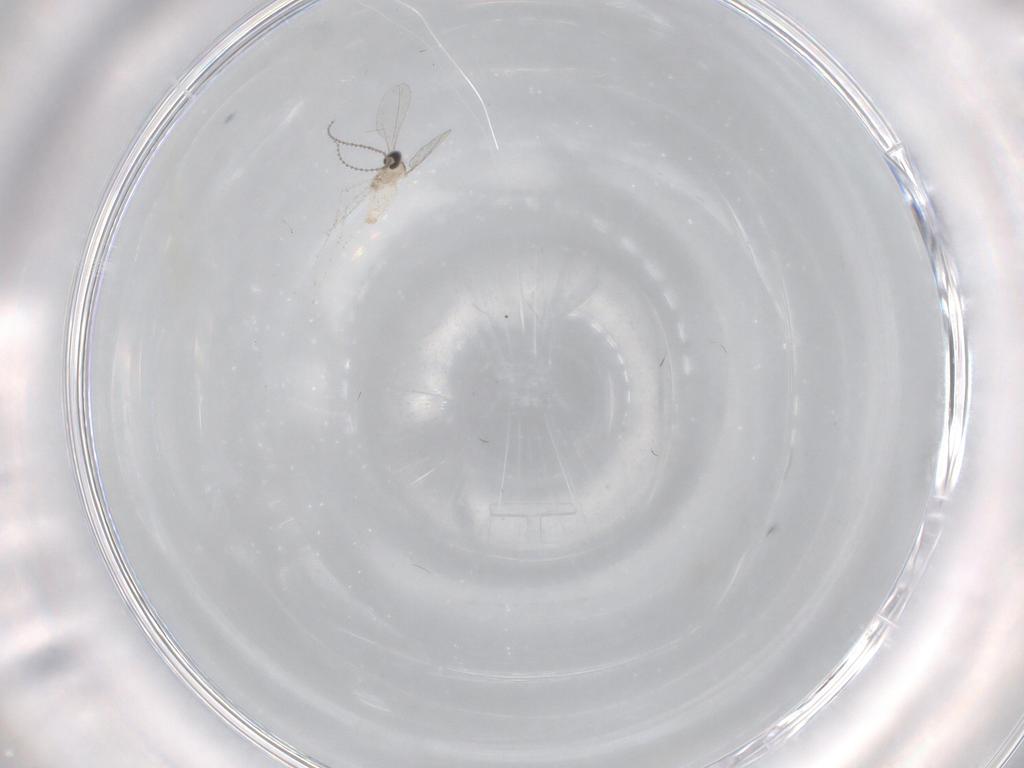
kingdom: Animalia
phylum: Arthropoda
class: Insecta
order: Diptera
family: Cecidomyiidae
